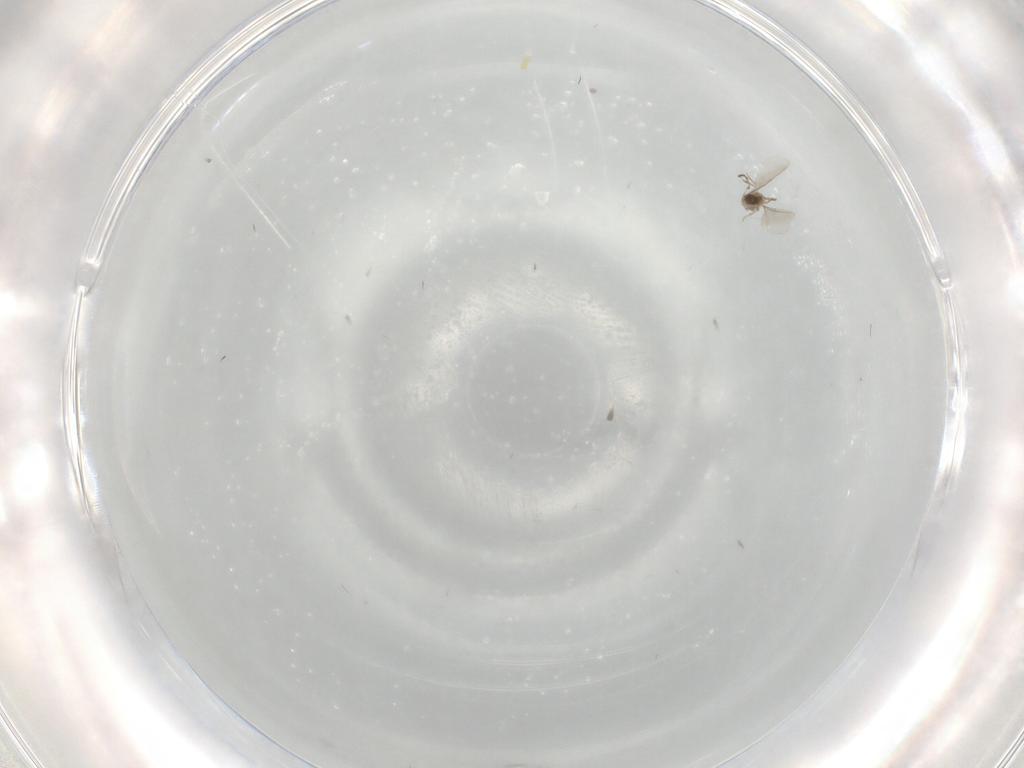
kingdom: Animalia
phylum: Arthropoda
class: Insecta
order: Diptera
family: Cecidomyiidae
